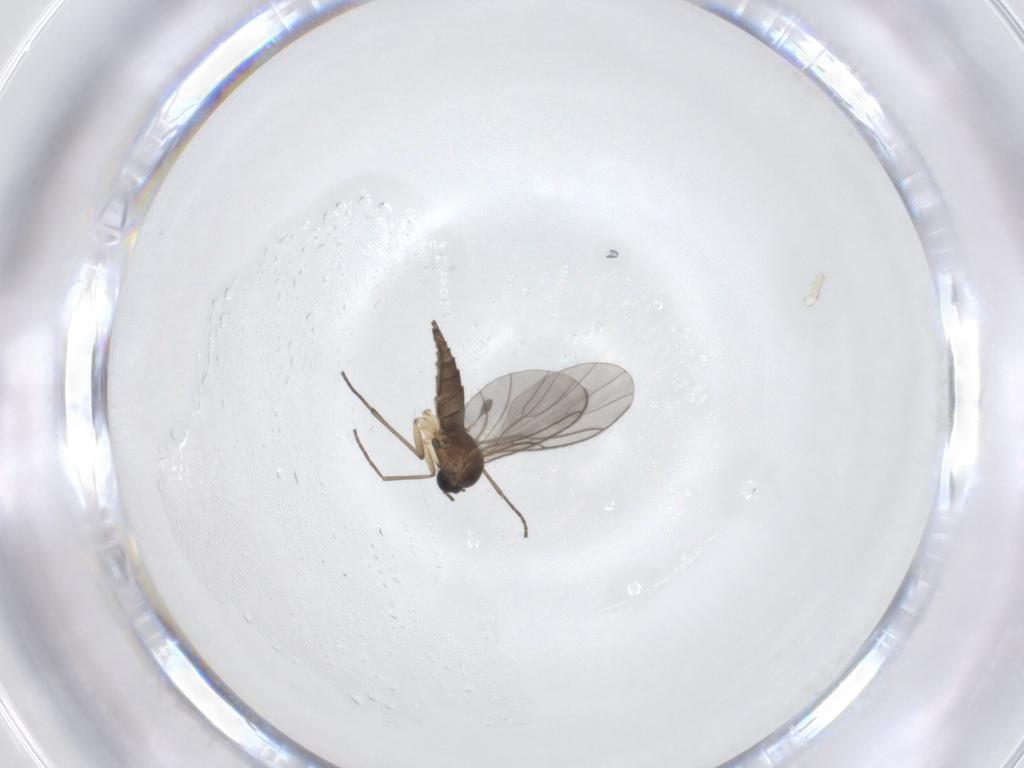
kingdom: Animalia
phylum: Arthropoda
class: Insecta
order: Diptera
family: Sciaridae
